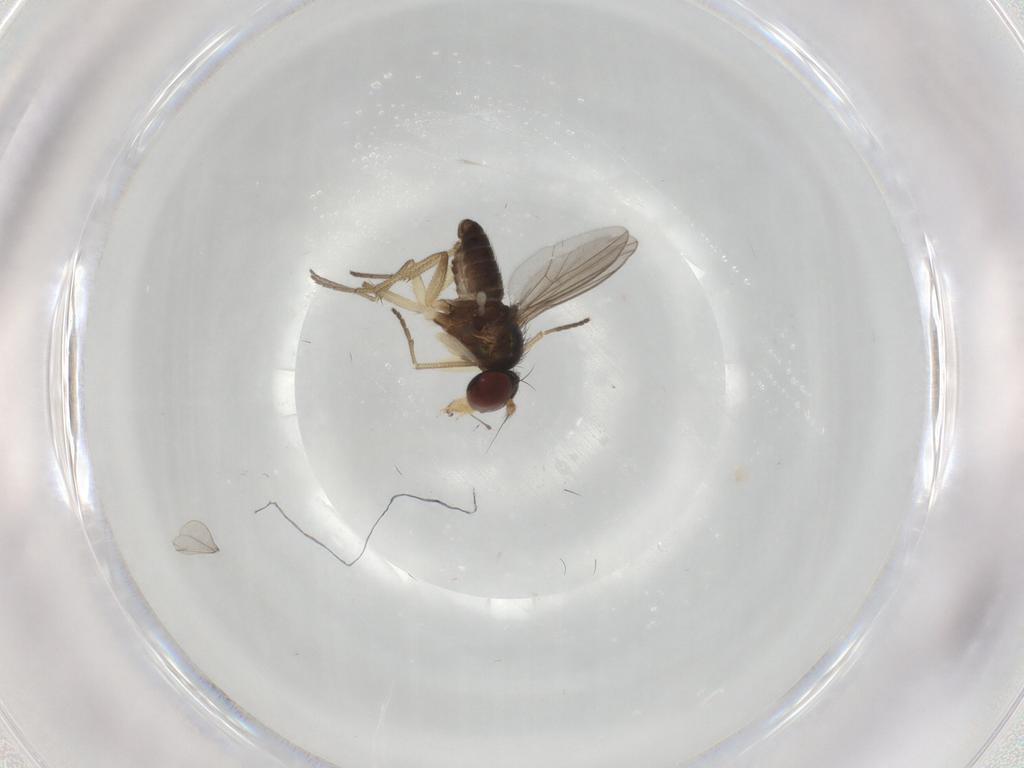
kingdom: Animalia
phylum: Arthropoda
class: Insecta
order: Diptera
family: Dolichopodidae
